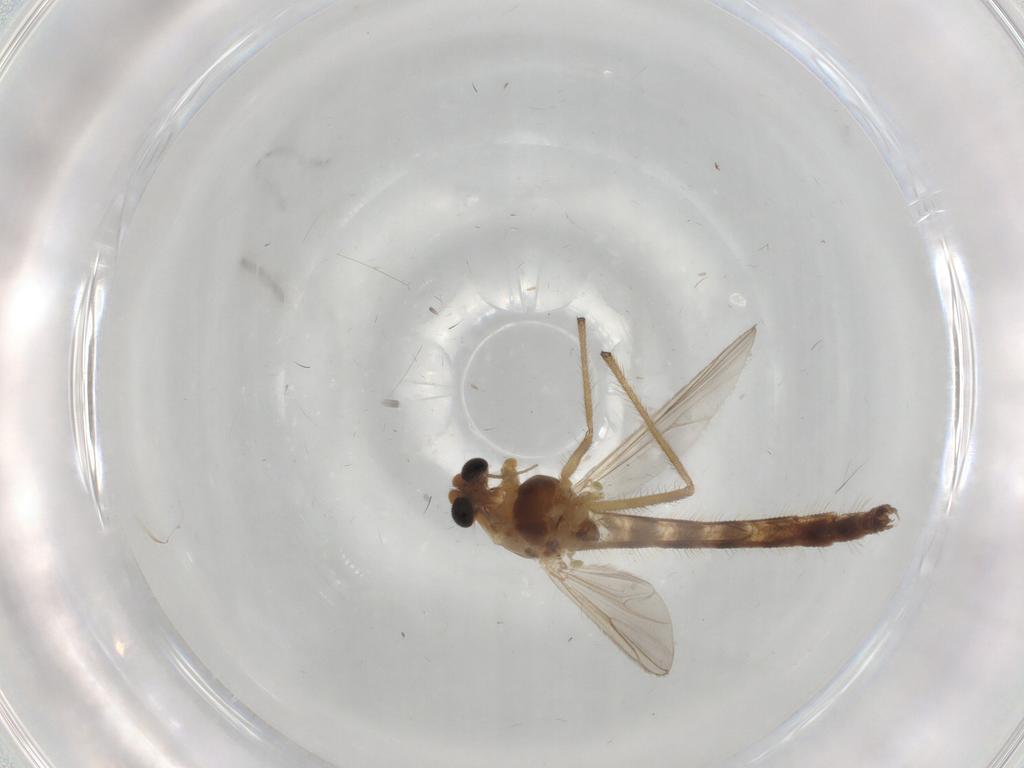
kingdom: Animalia
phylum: Arthropoda
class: Insecta
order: Diptera
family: Chironomidae
